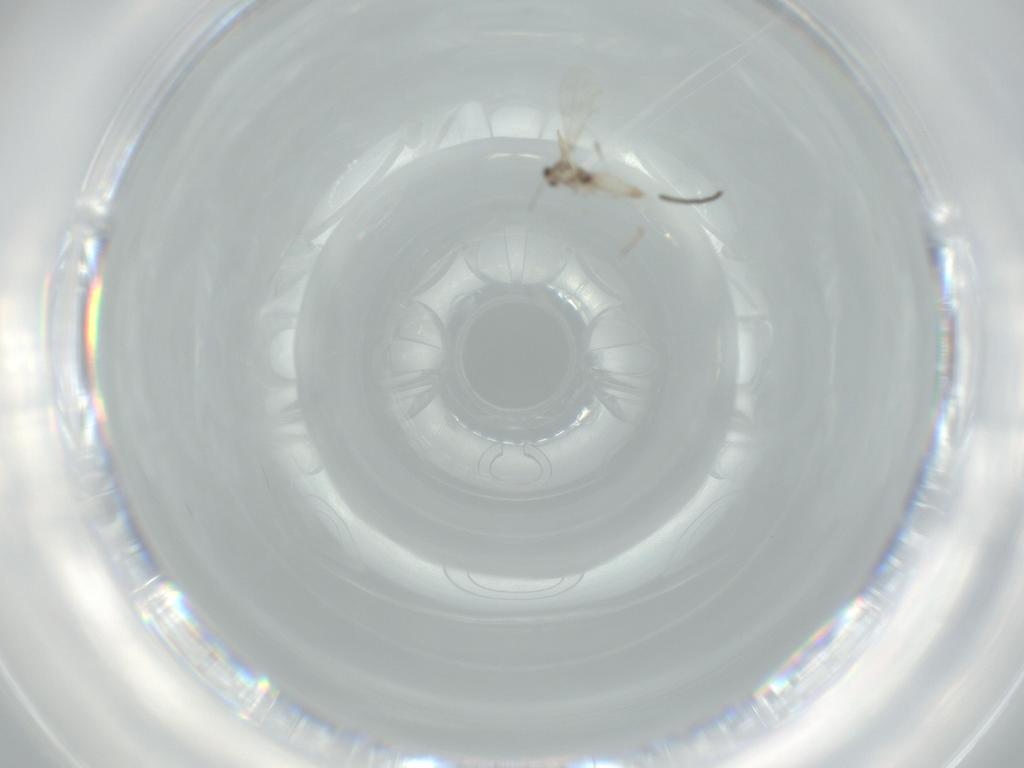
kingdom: Animalia
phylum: Arthropoda
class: Insecta
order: Diptera
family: Cecidomyiidae
